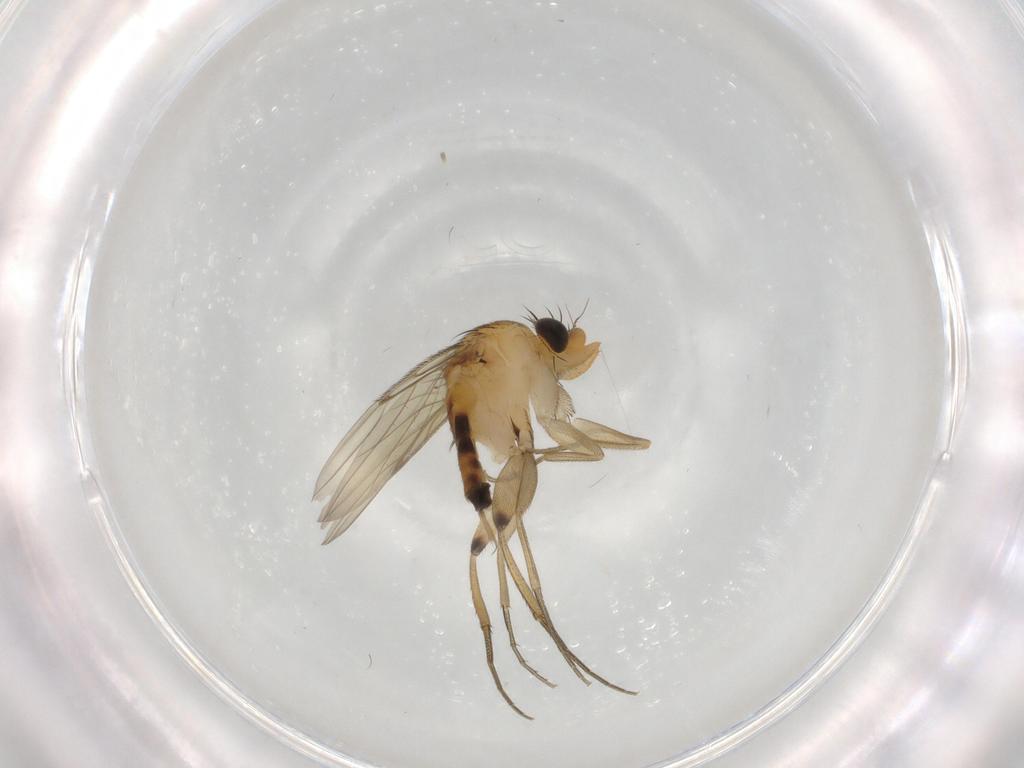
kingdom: Animalia
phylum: Arthropoda
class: Insecta
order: Diptera
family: Phoridae
